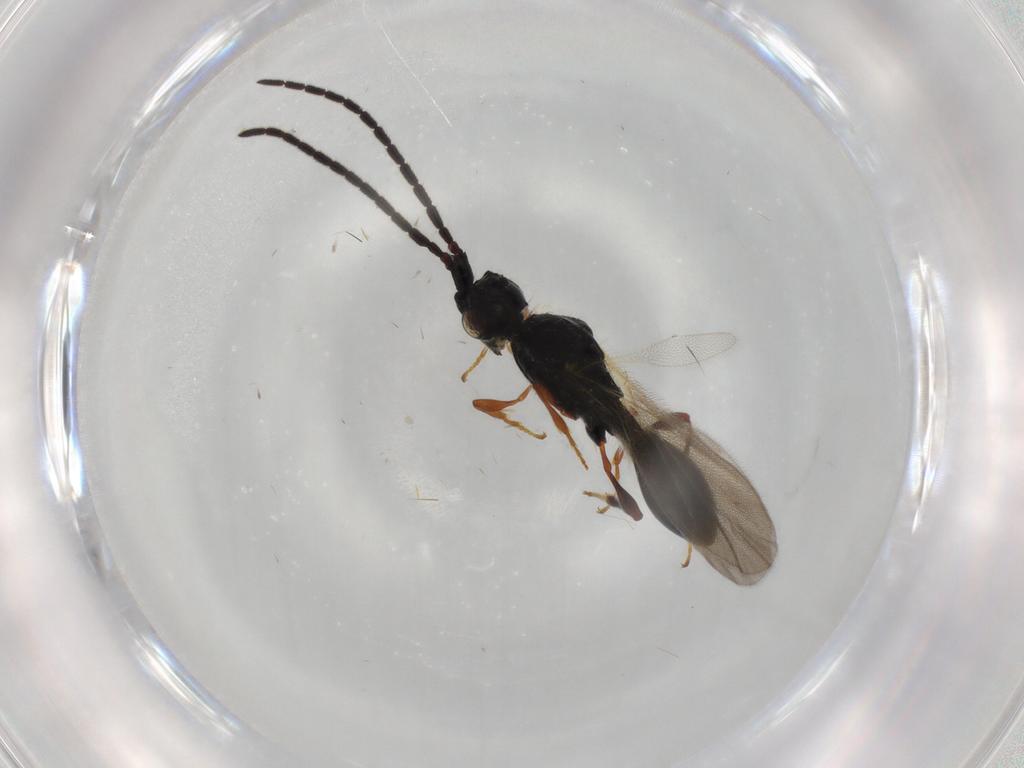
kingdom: Animalia
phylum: Arthropoda
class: Insecta
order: Hymenoptera
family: Diapriidae
